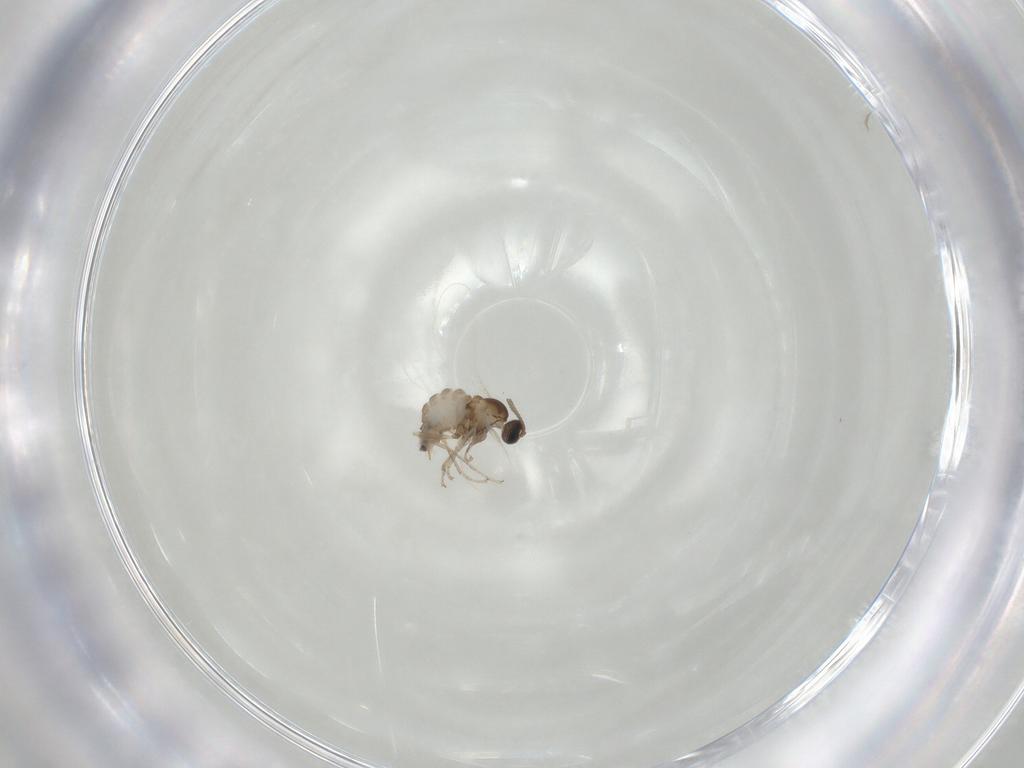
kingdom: Animalia
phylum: Arthropoda
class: Insecta
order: Diptera
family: Cecidomyiidae
